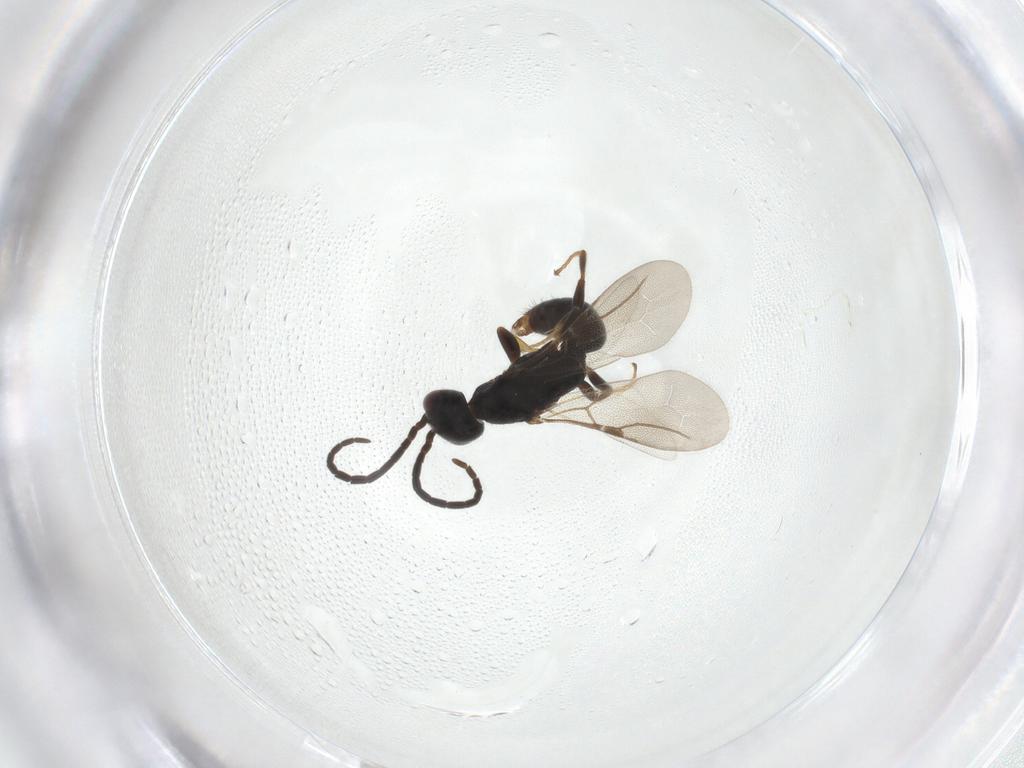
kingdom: Animalia
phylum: Arthropoda
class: Insecta
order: Hymenoptera
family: Bethylidae
